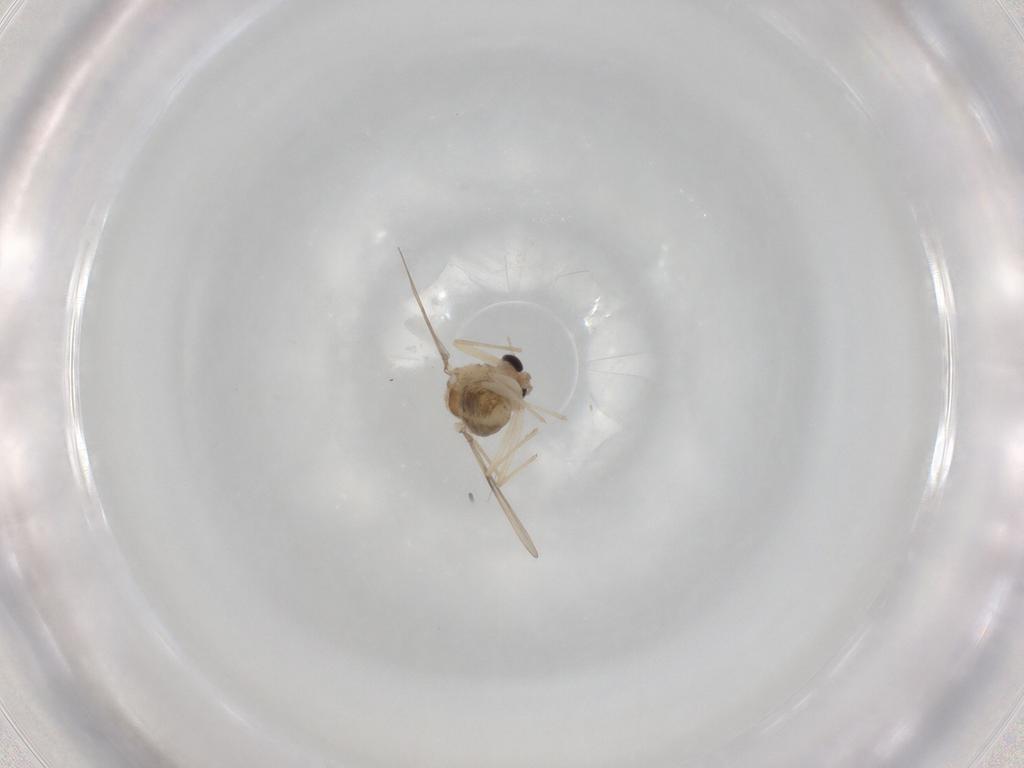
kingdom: Animalia
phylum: Arthropoda
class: Insecta
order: Diptera
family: Chironomidae
